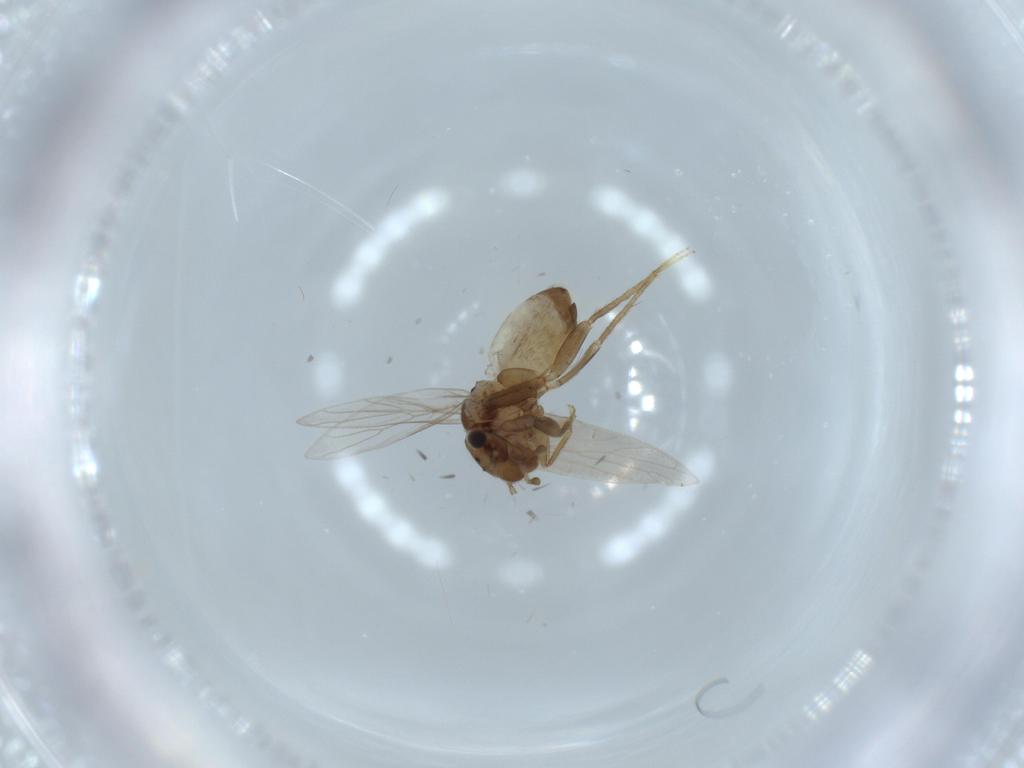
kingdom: Animalia
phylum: Arthropoda
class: Insecta
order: Psocodea
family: Lepidopsocidae
